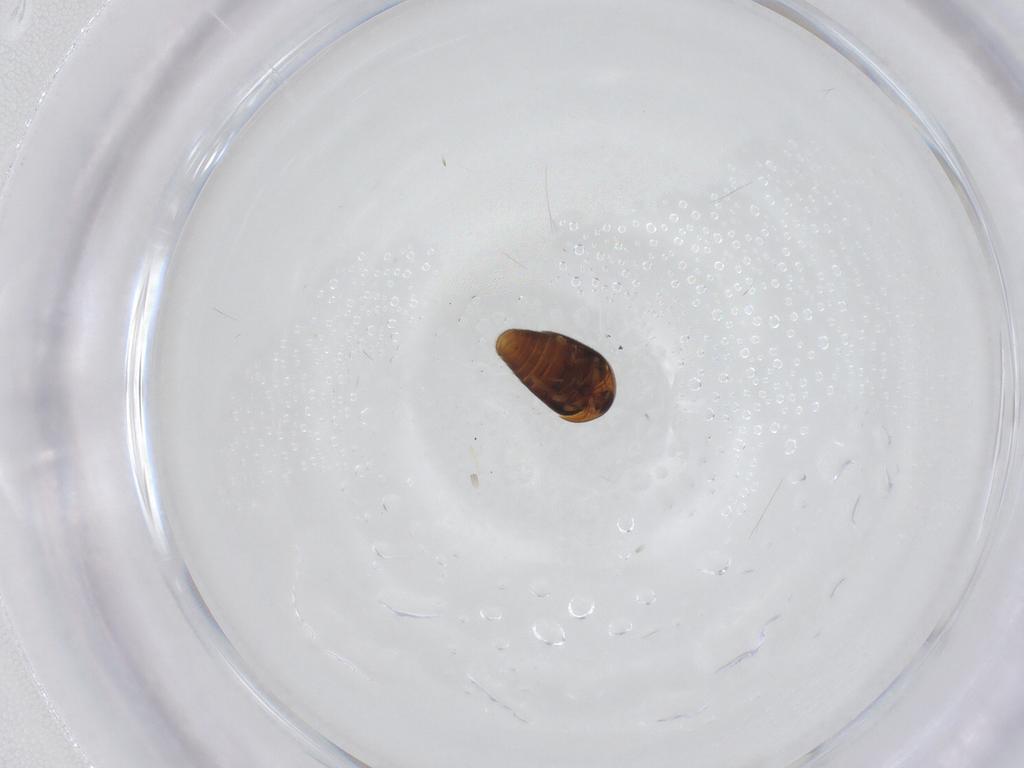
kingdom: Animalia
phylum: Arthropoda
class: Insecta
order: Coleoptera
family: Corylophidae
